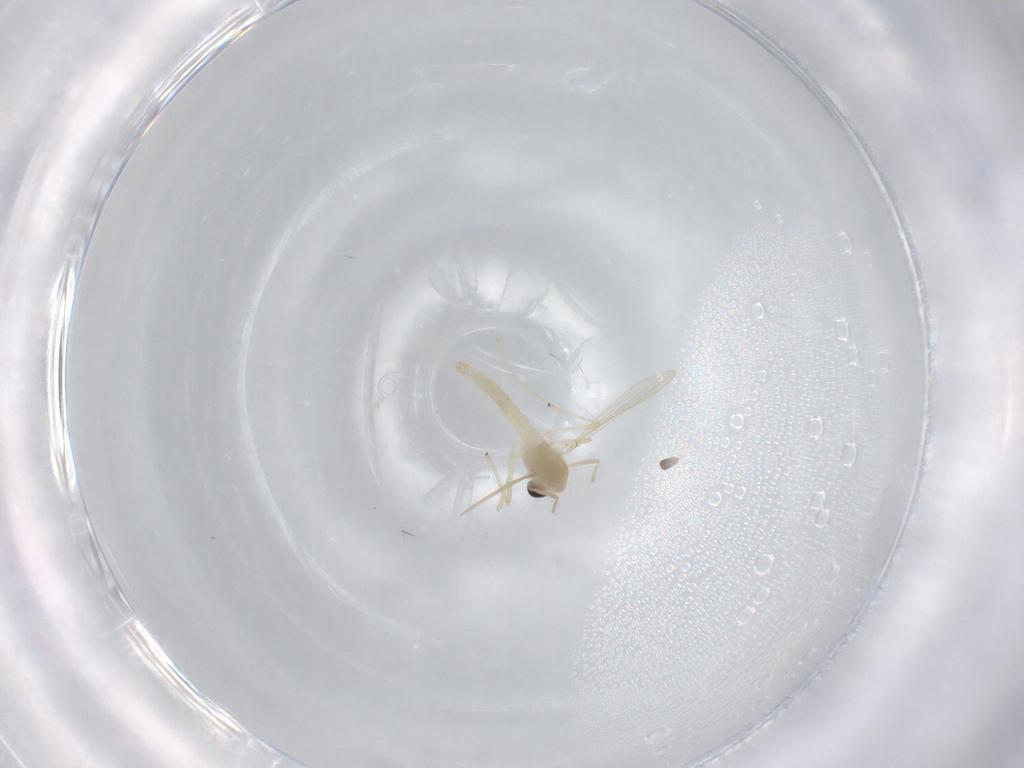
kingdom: Animalia
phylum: Arthropoda
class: Insecta
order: Diptera
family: Chironomidae
